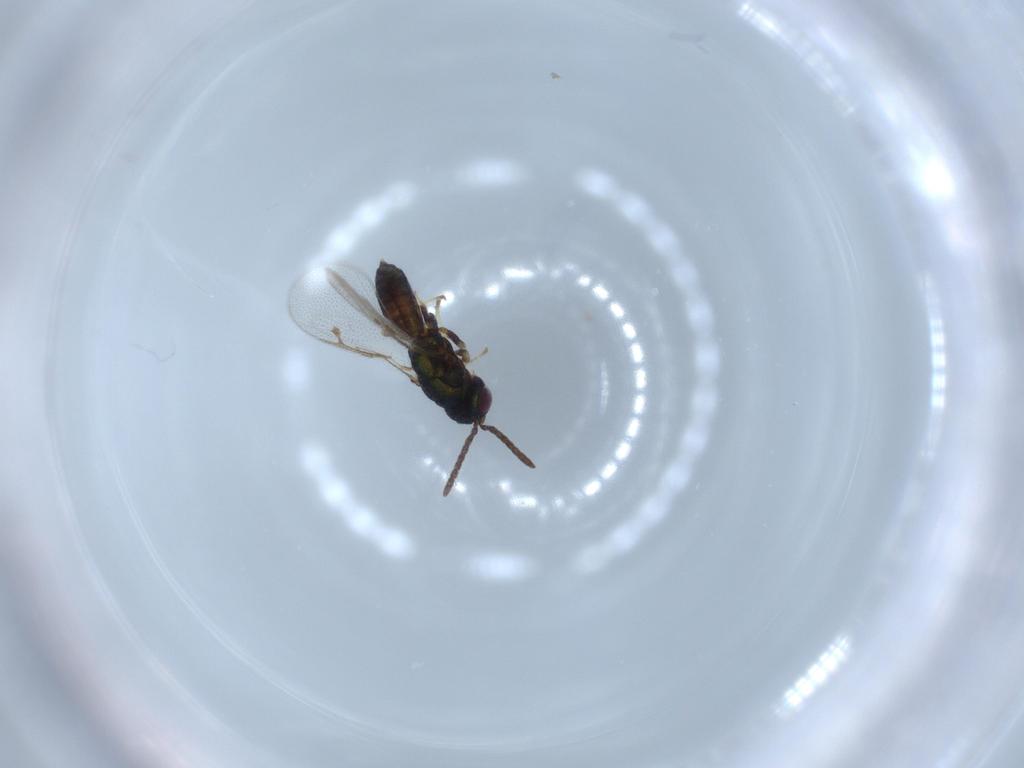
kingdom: Animalia
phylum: Arthropoda
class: Insecta
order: Hymenoptera
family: Pteromalidae
